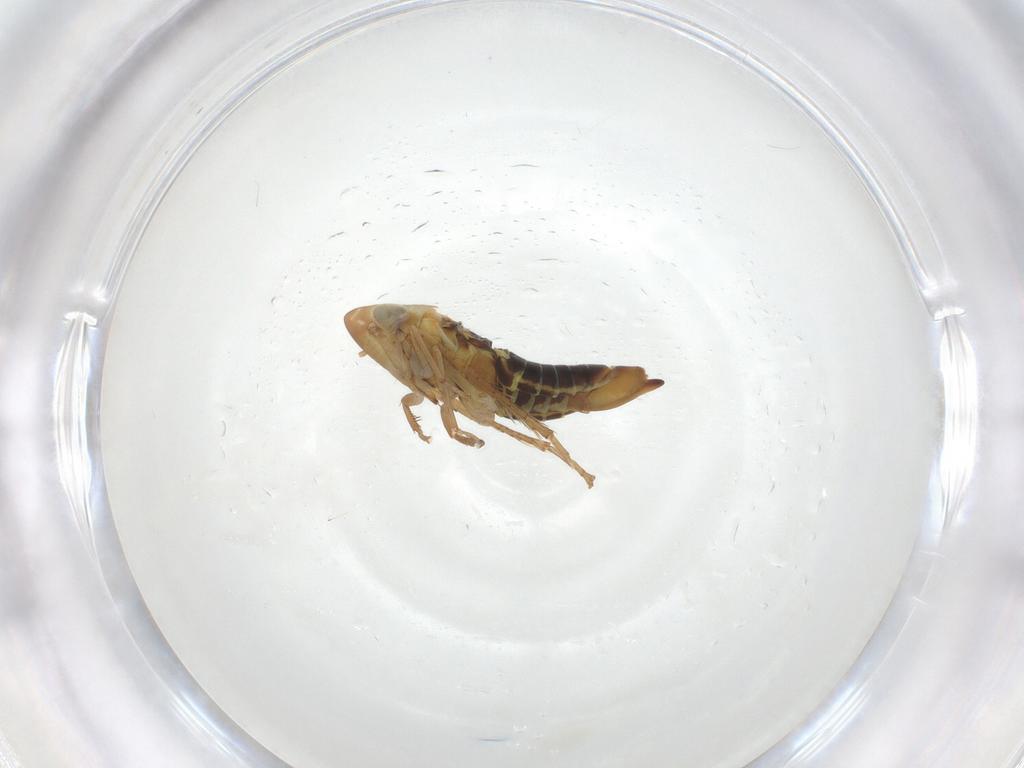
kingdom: Animalia
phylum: Arthropoda
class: Insecta
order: Hemiptera
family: Cicadellidae
